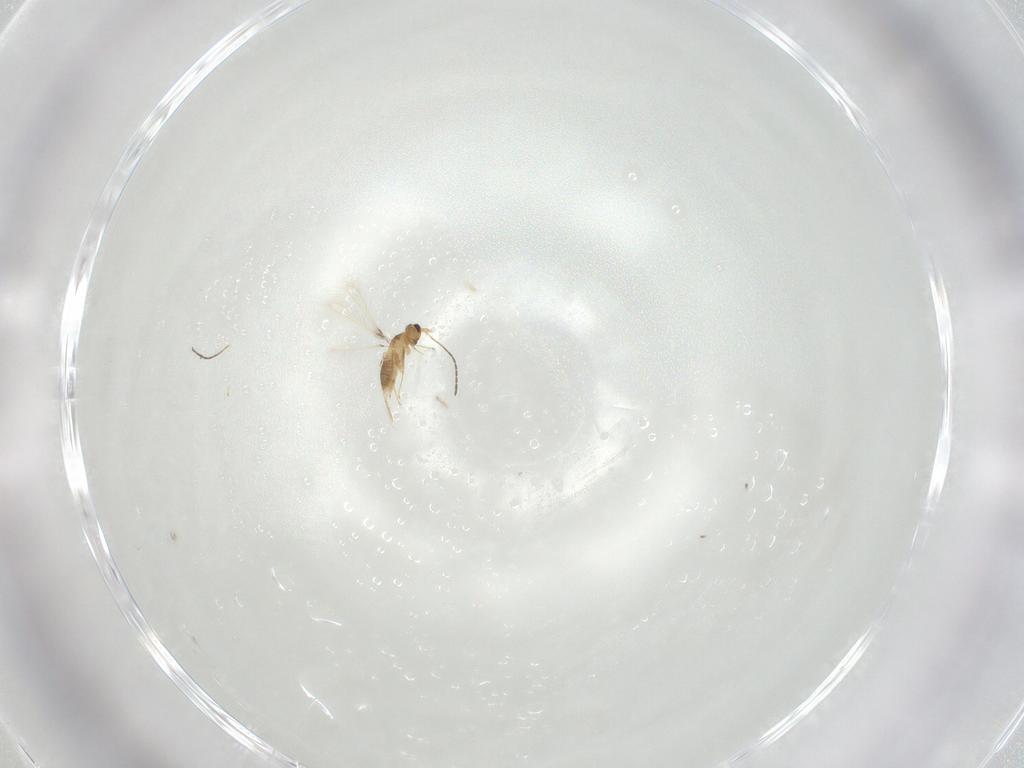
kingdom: Animalia
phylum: Arthropoda
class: Insecta
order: Hymenoptera
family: Mymaridae
